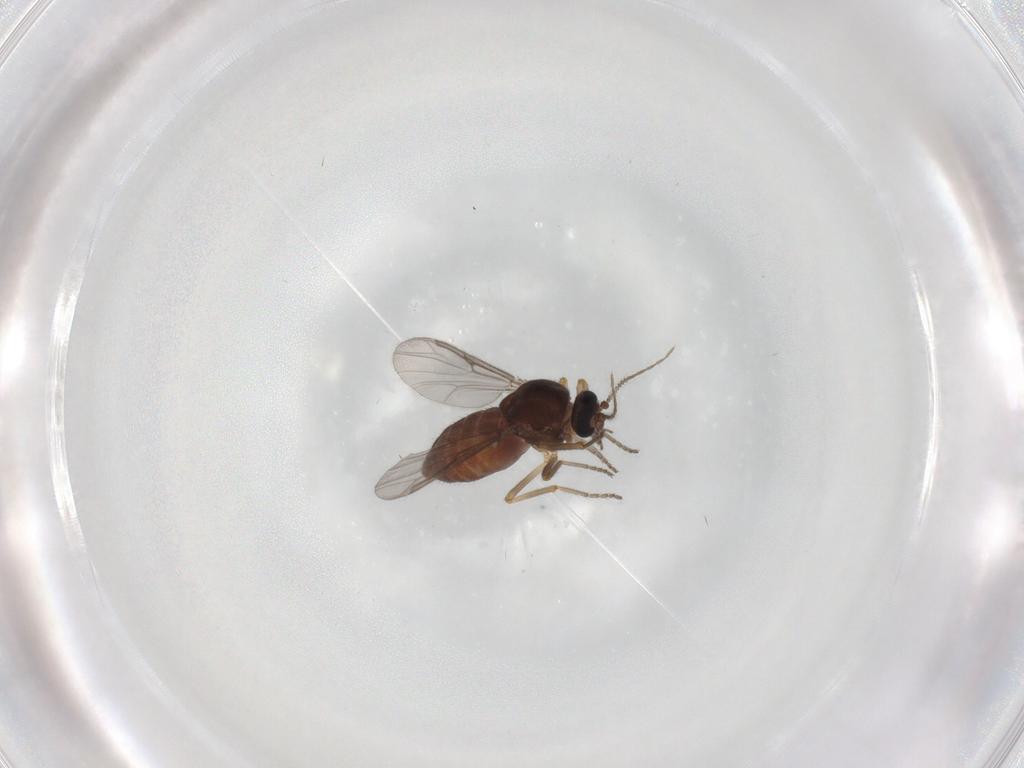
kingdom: Animalia
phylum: Arthropoda
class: Insecta
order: Diptera
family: Ceratopogonidae
